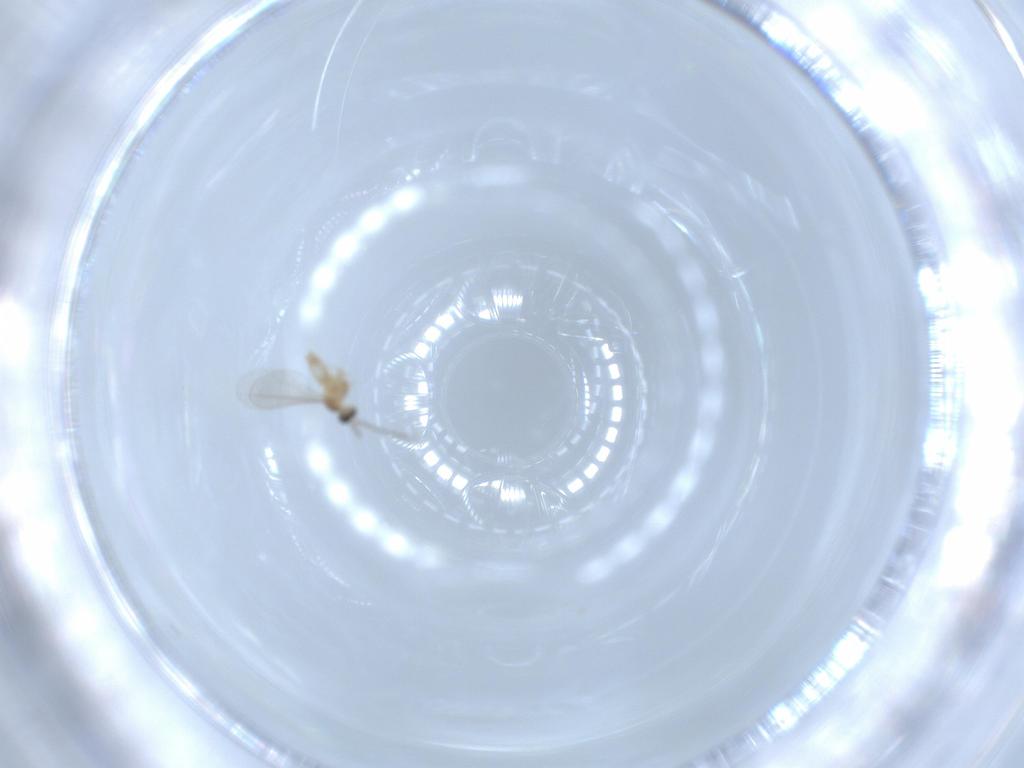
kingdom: Animalia
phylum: Arthropoda
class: Insecta
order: Diptera
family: Cecidomyiidae
